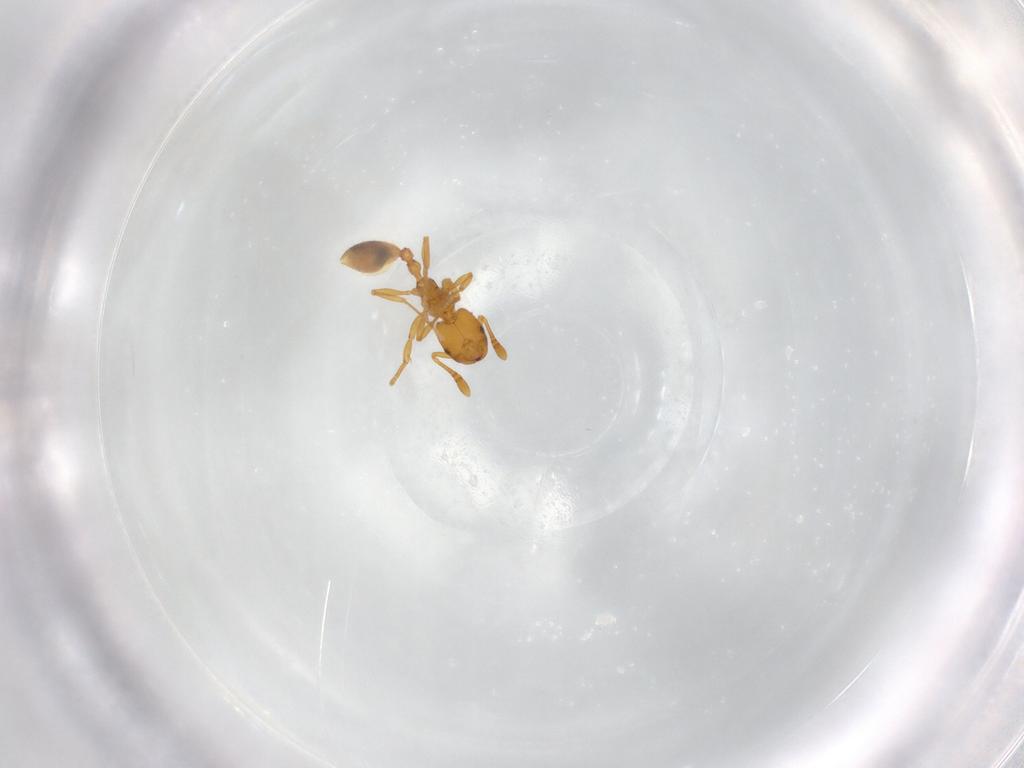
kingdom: Animalia
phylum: Arthropoda
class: Insecta
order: Hymenoptera
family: Formicidae
